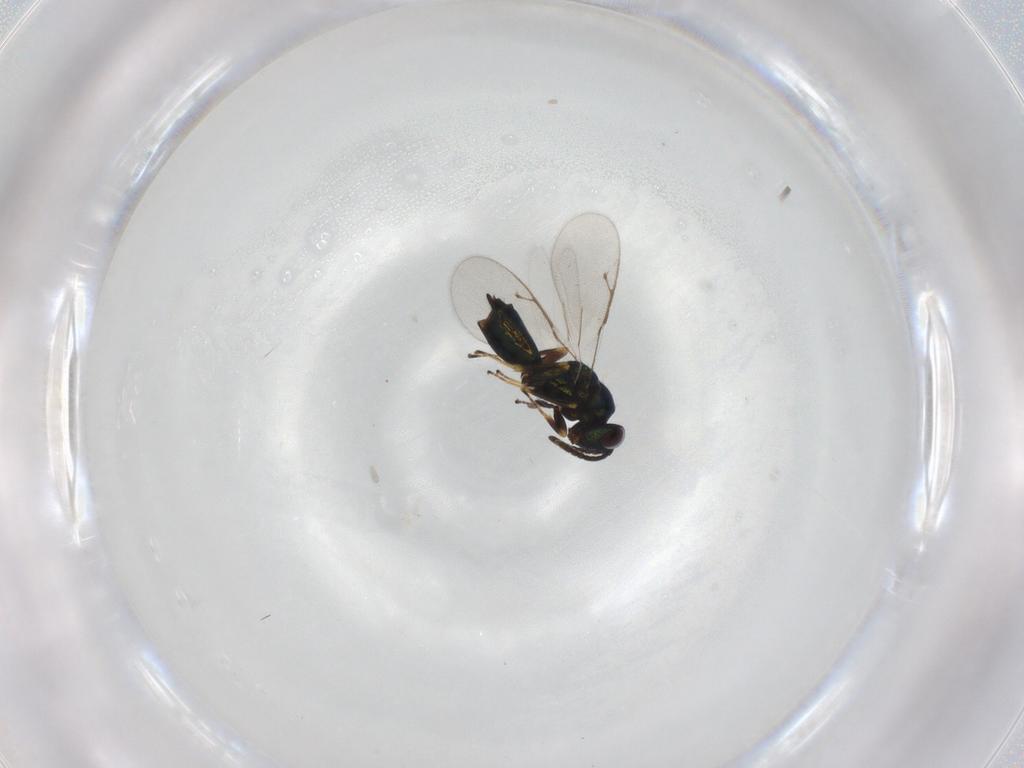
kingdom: Animalia
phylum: Arthropoda
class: Insecta
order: Hymenoptera
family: Pteromalidae
